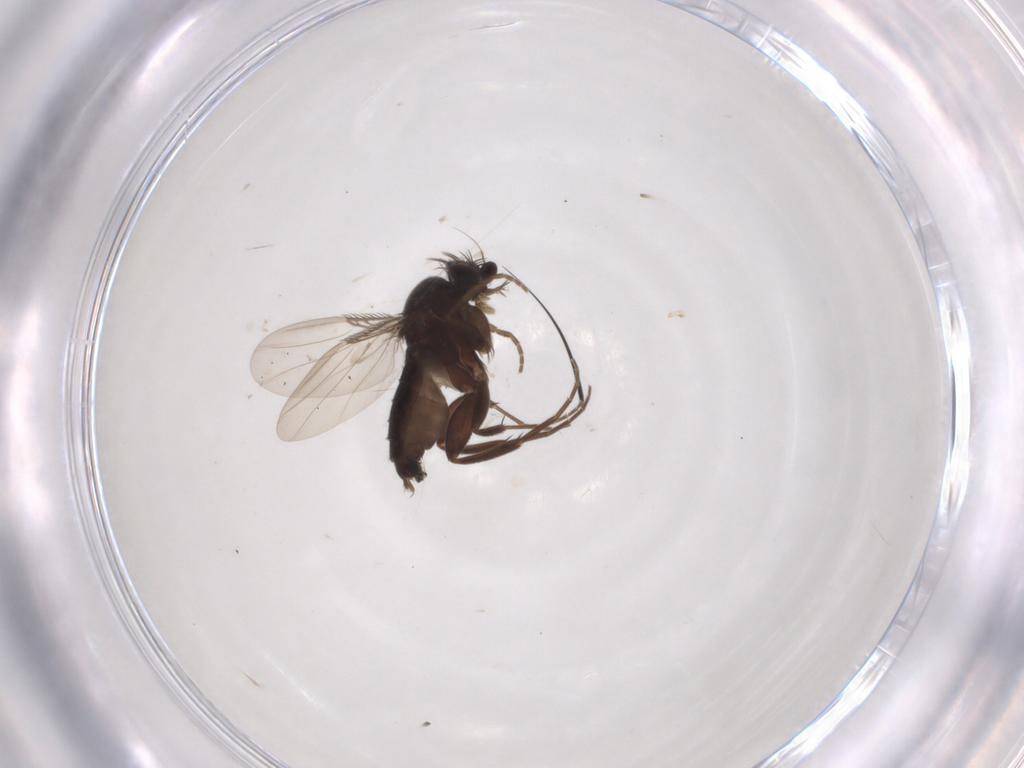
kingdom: Animalia
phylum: Arthropoda
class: Insecta
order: Diptera
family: Phoridae
